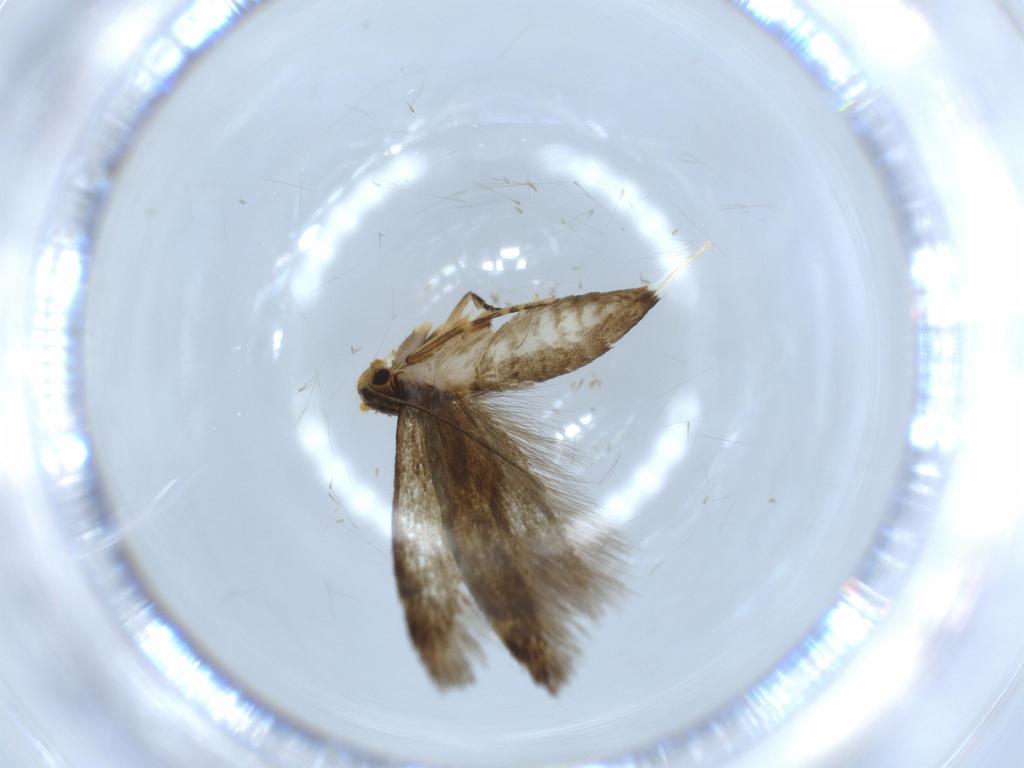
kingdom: Animalia
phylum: Arthropoda
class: Insecta
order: Lepidoptera
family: Tineidae
